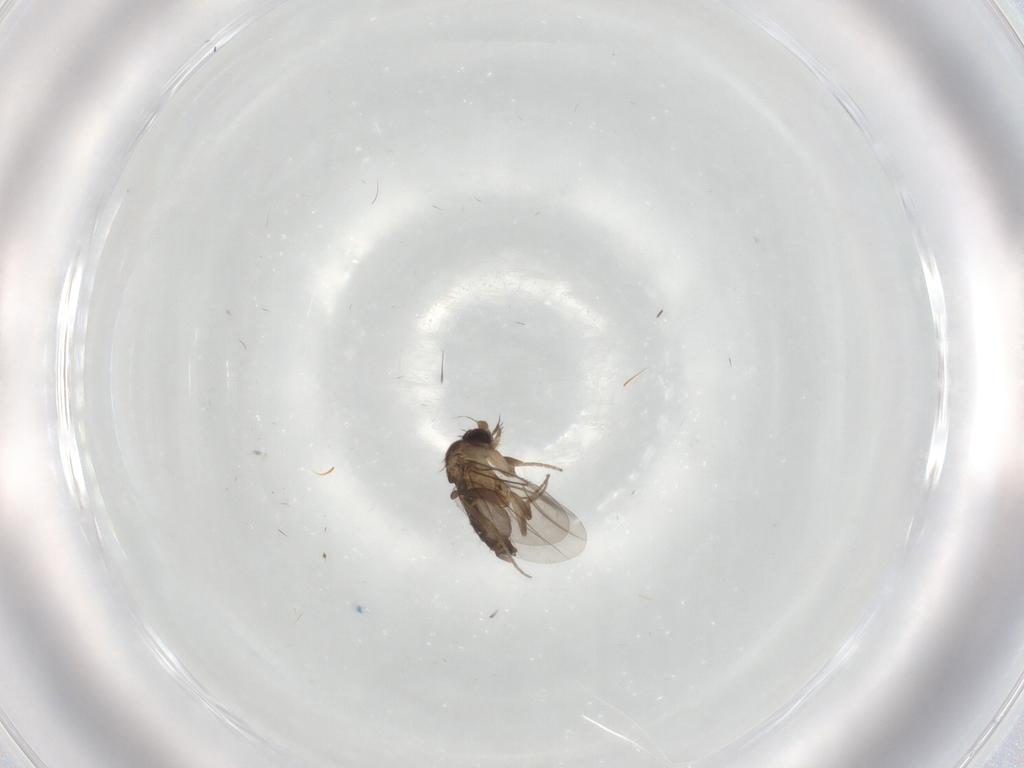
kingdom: Animalia
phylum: Arthropoda
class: Insecta
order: Diptera
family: Phoridae
